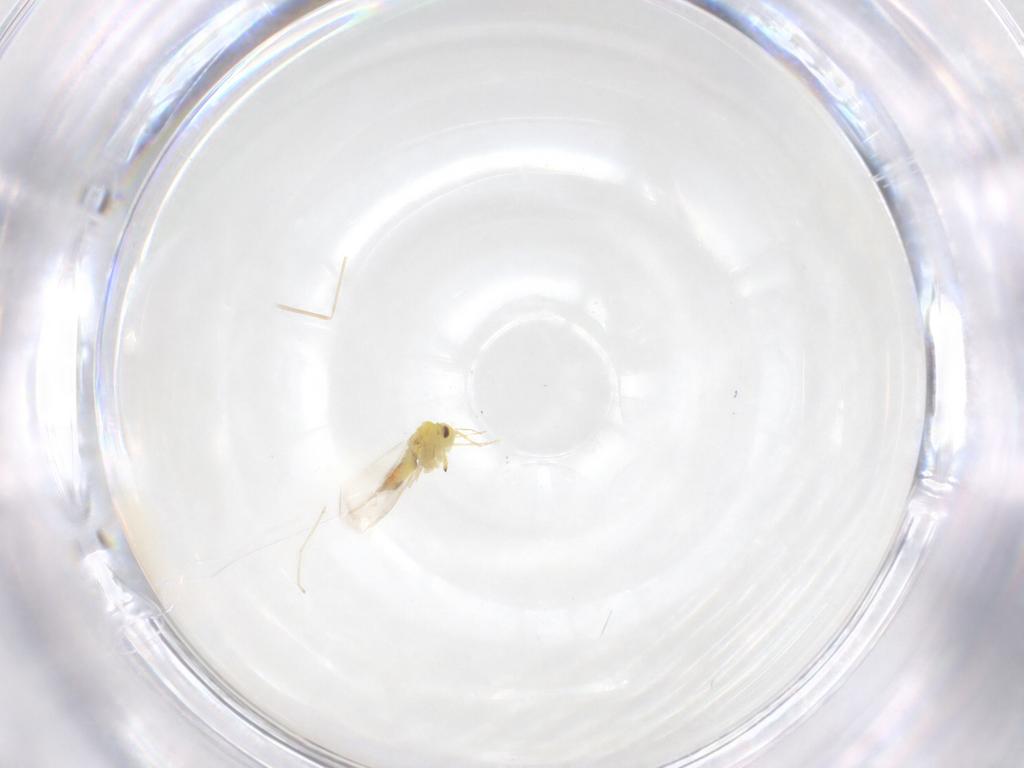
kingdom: Animalia
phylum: Arthropoda
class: Insecta
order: Hemiptera
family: Aleyrodidae
